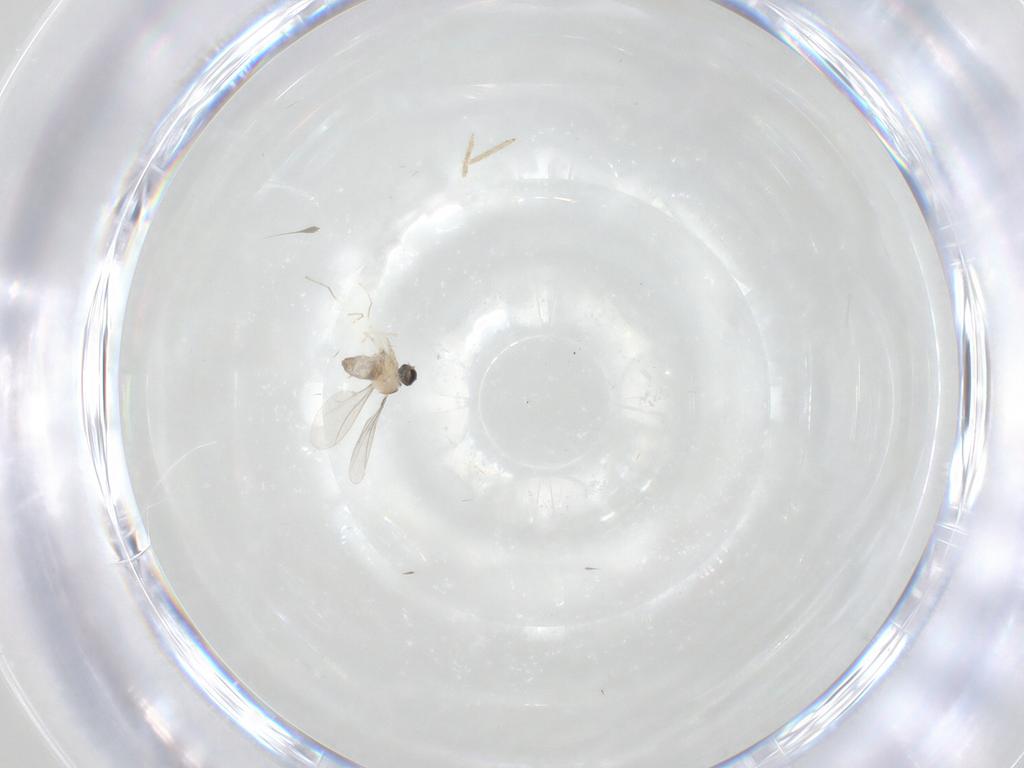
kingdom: Animalia
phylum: Arthropoda
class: Insecta
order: Diptera
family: Cecidomyiidae
